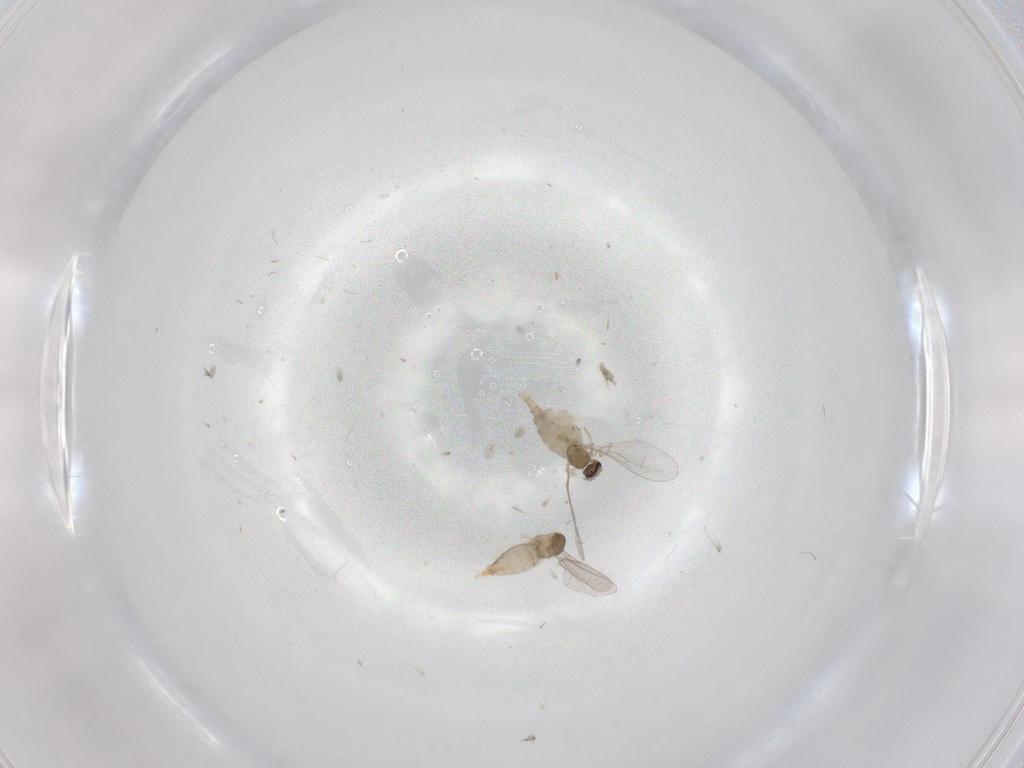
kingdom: Animalia
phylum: Arthropoda
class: Insecta
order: Diptera
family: Cecidomyiidae
